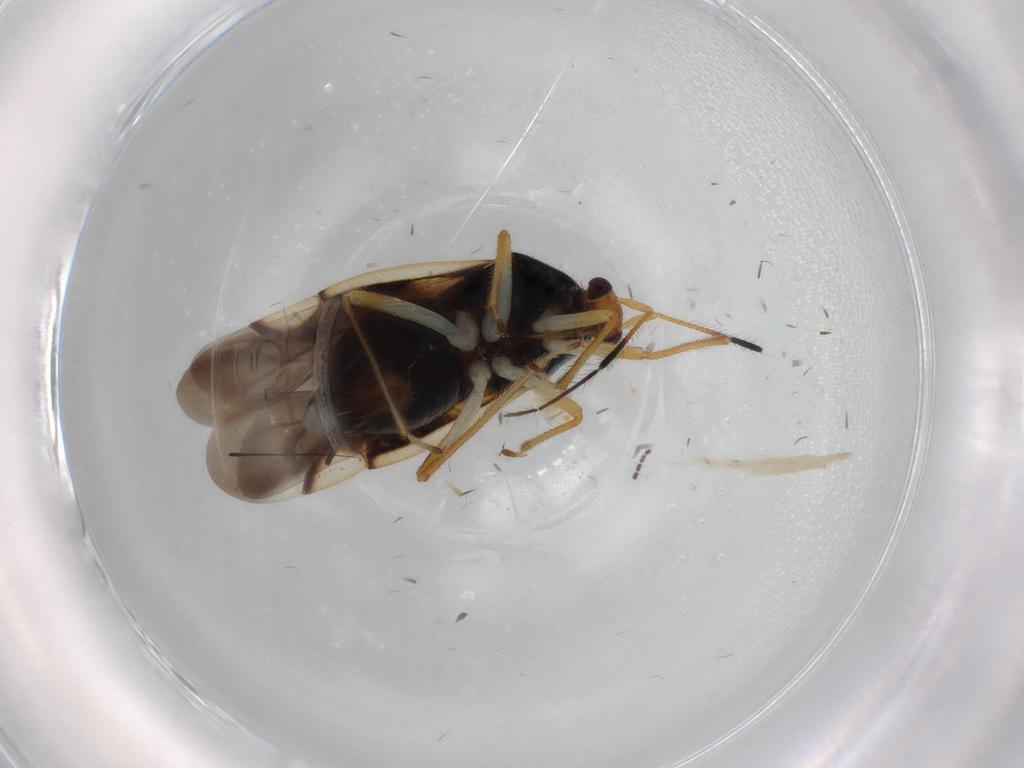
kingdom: Animalia
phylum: Arthropoda
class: Insecta
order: Hemiptera
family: Miridae
